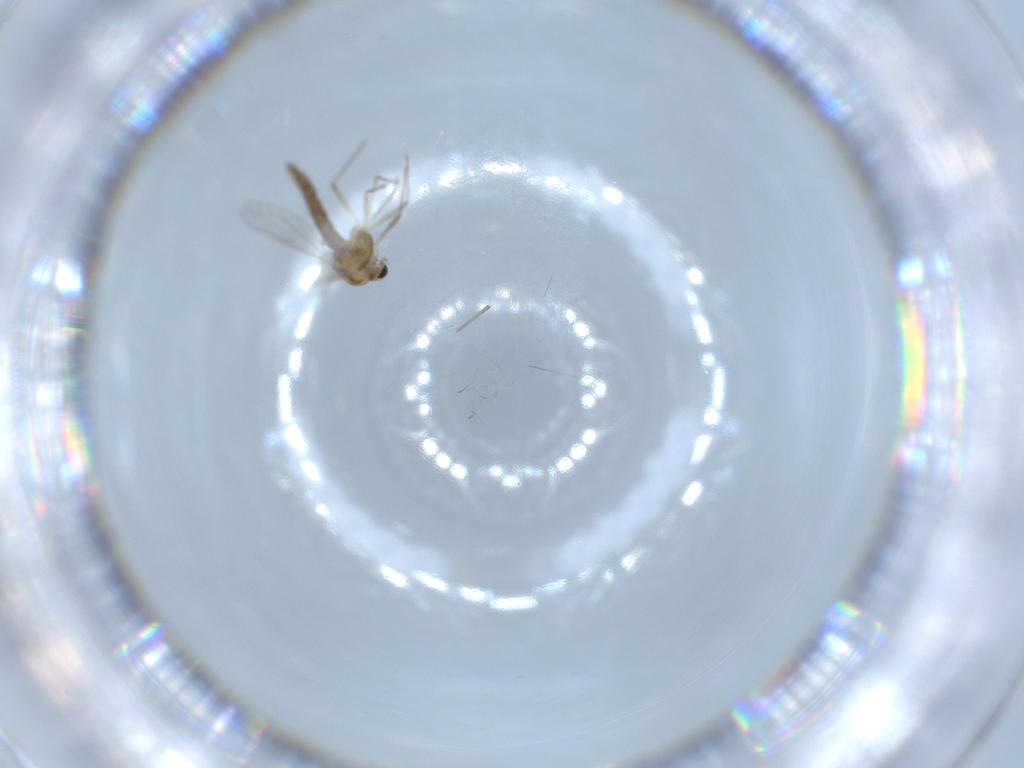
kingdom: Animalia
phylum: Arthropoda
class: Insecta
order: Diptera
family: Chironomidae
